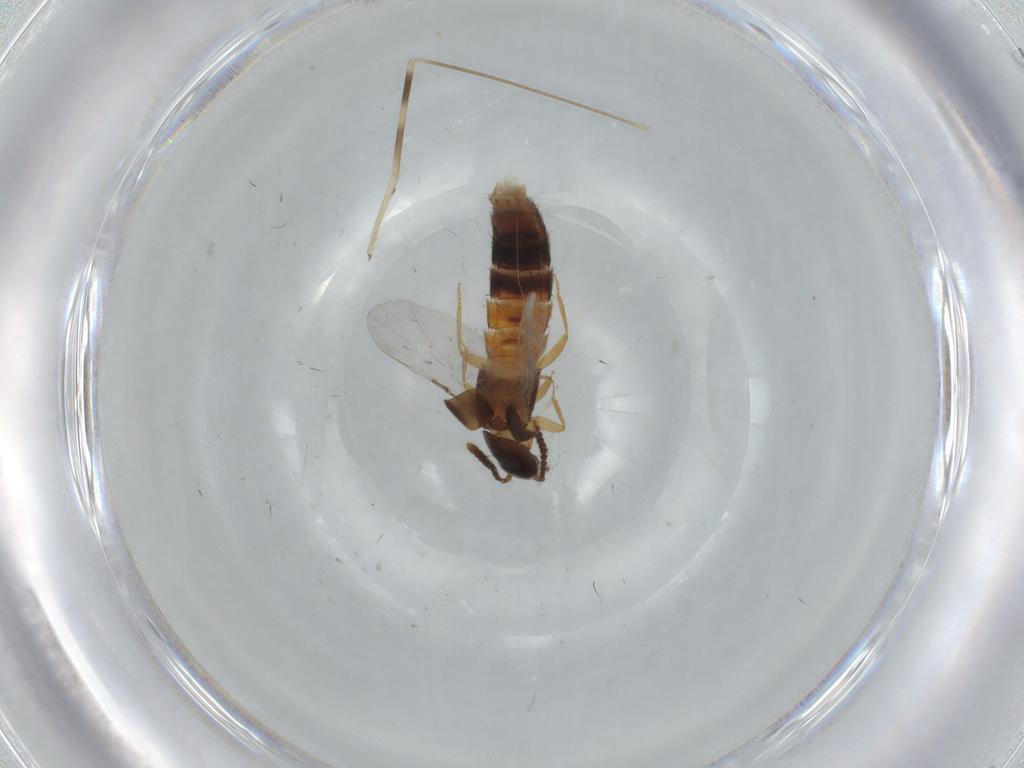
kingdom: Animalia
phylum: Arthropoda
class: Insecta
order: Coleoptera
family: Staphylinidae
